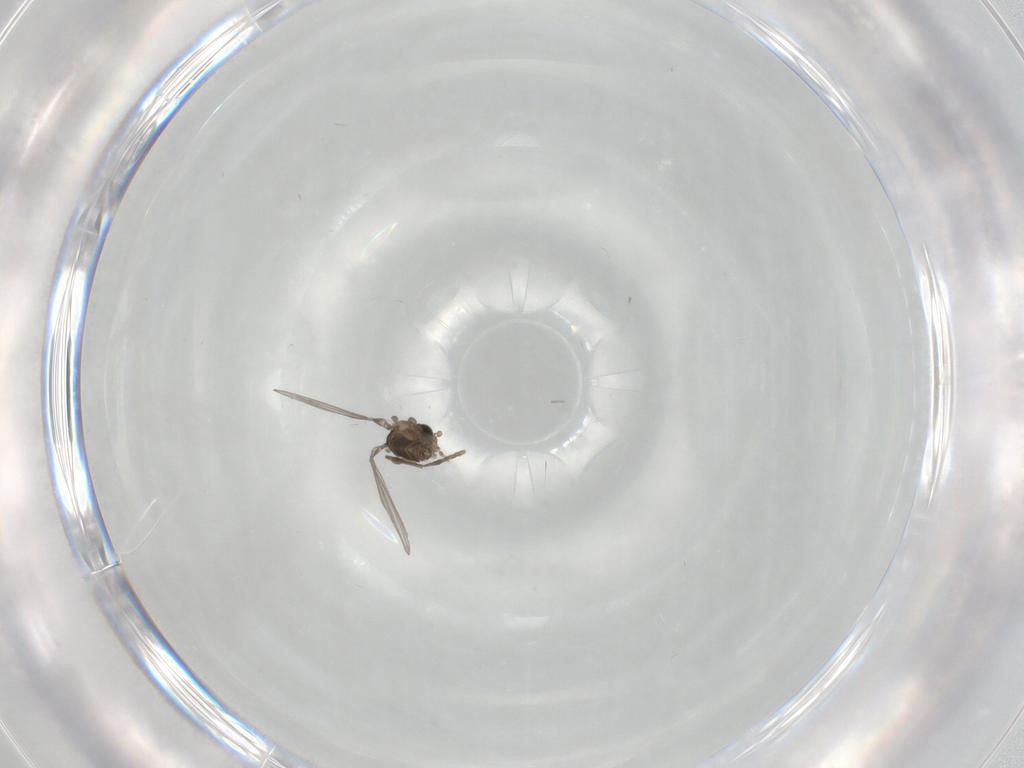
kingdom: Animalia
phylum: Arthropoda
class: Insecta
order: Diptera
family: Psychodidae
